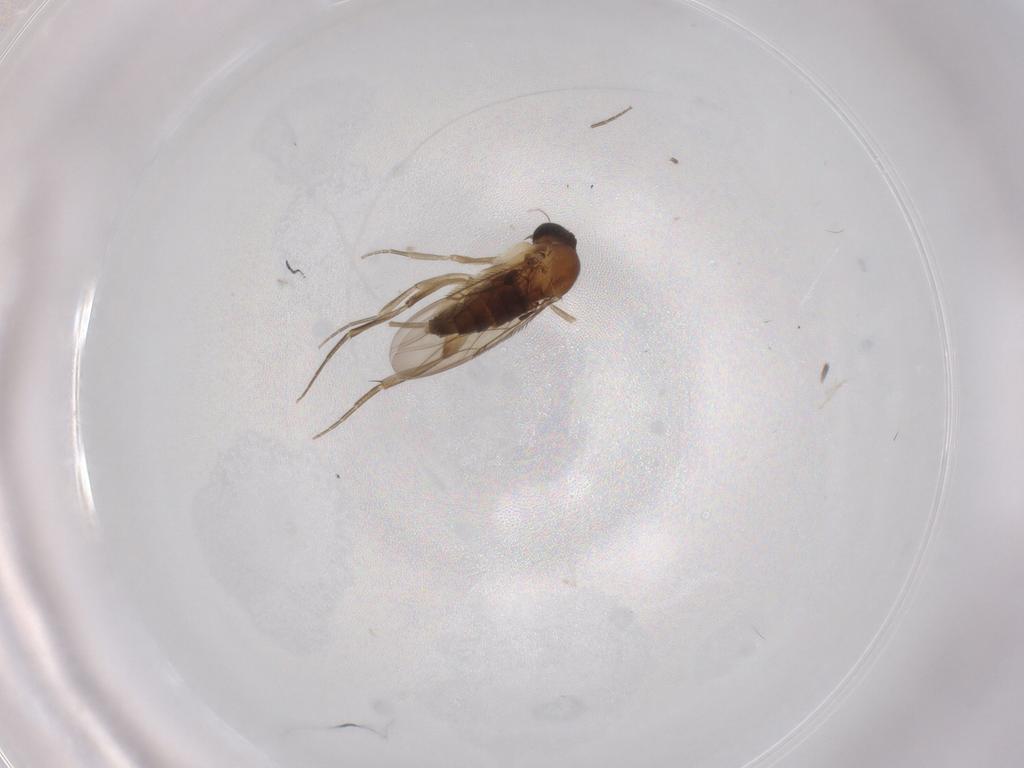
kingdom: Animalia
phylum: Arthropoda
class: Insecta
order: Diptera
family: Phoridae
